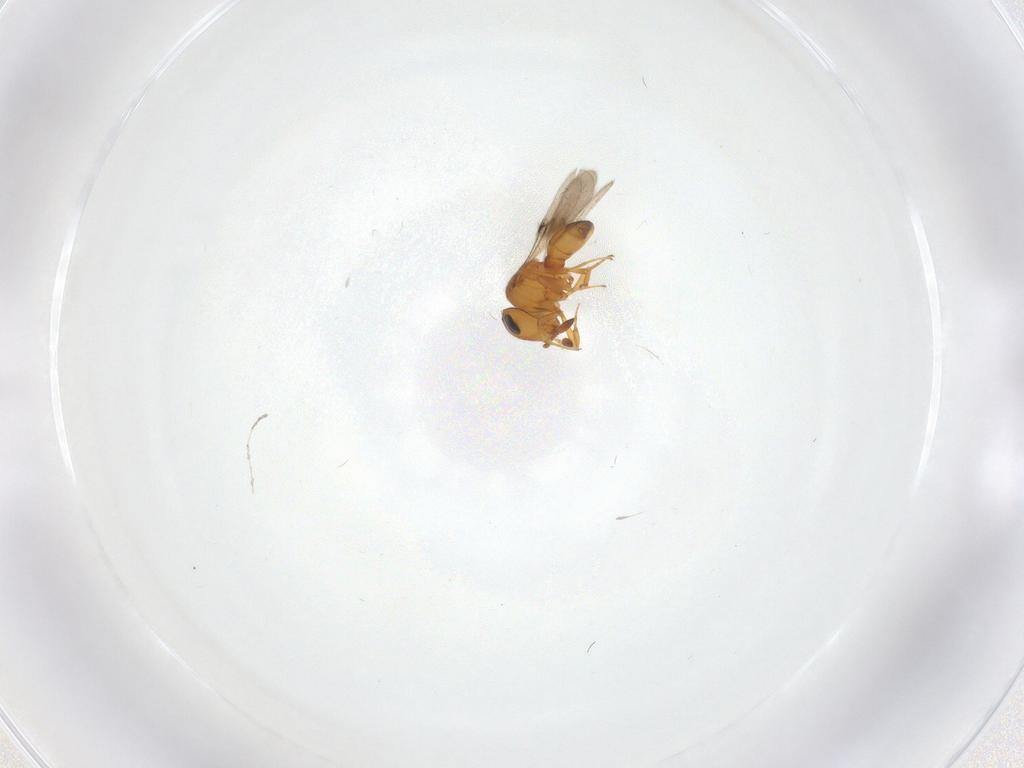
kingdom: Animalia
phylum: Arthropoda
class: Insecta
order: Hymenoptera
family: Scelionidae
